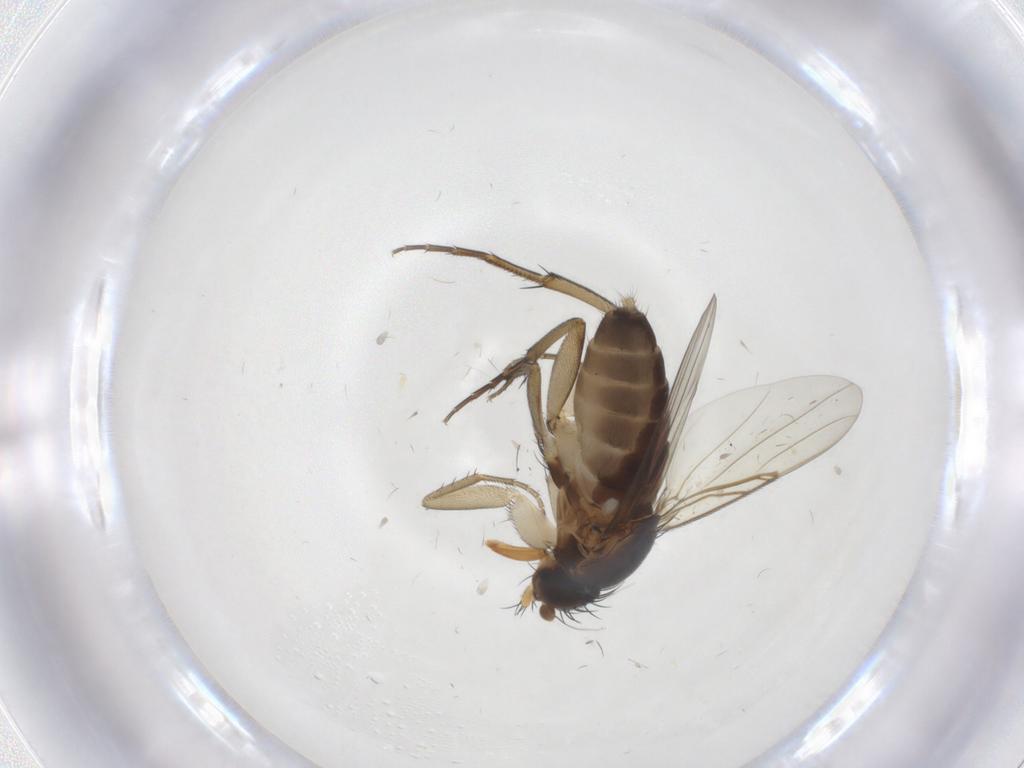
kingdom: Animalia
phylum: Arthropoda
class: Insecta
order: Diptera
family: Phoridae
